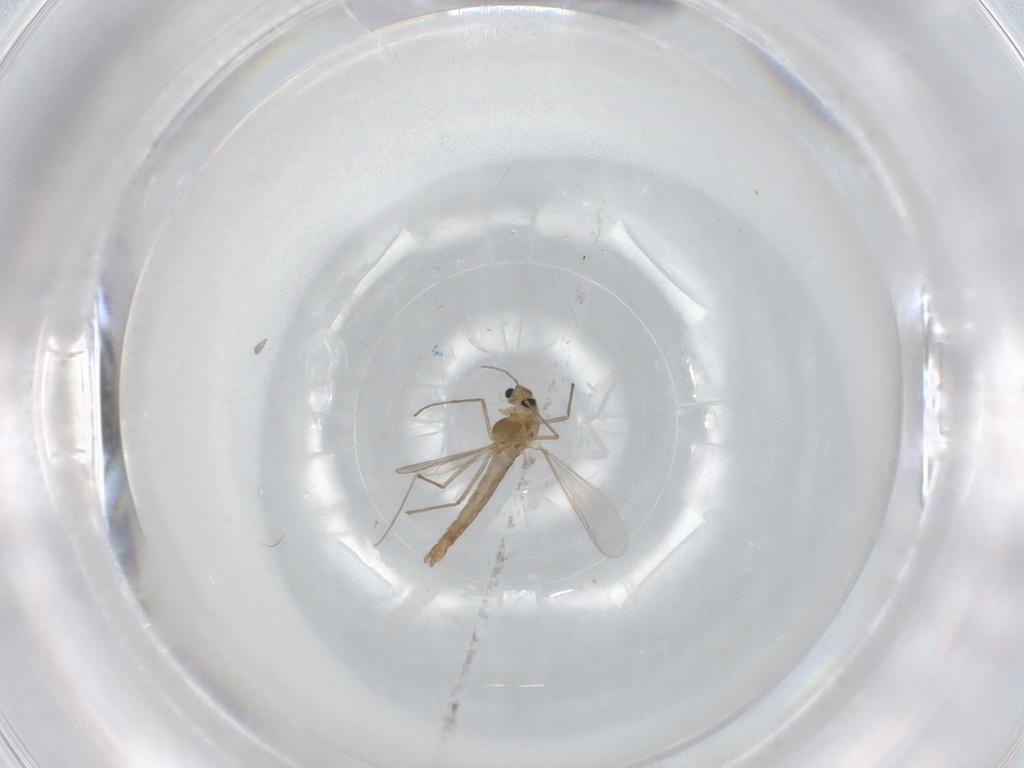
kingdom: Animalia
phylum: Arthropoda
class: Insecta
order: Diptera
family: Chironomidae
